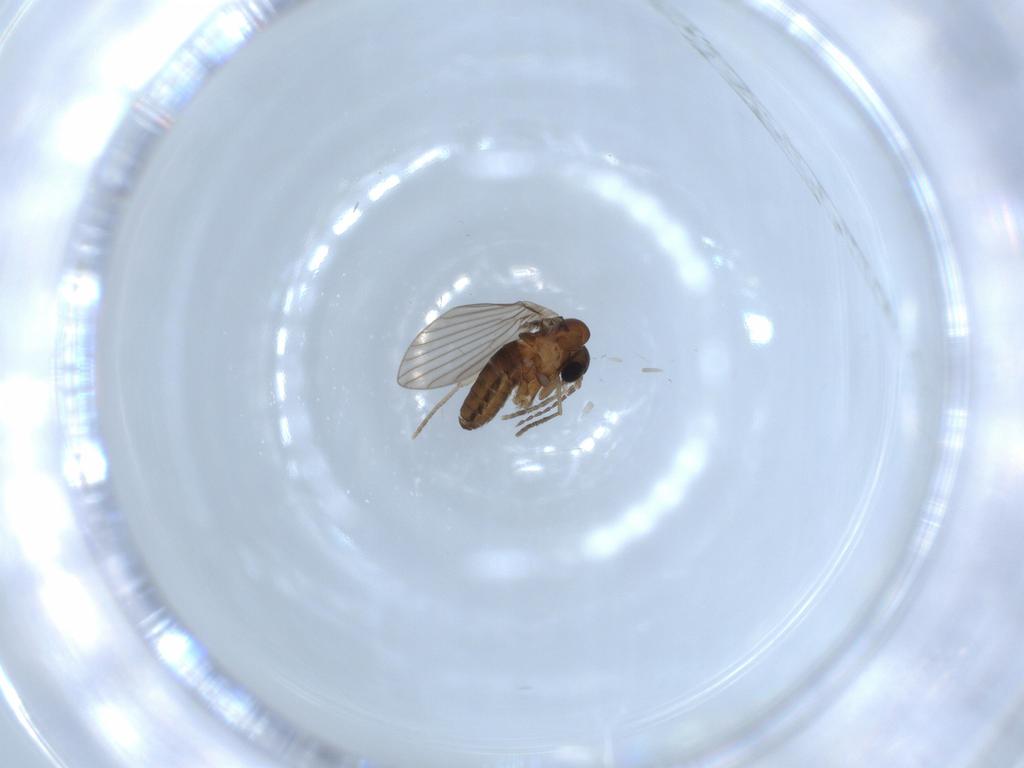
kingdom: Animalia
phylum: Arthropoda
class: Insecta
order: Diptera
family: Psychodidae
